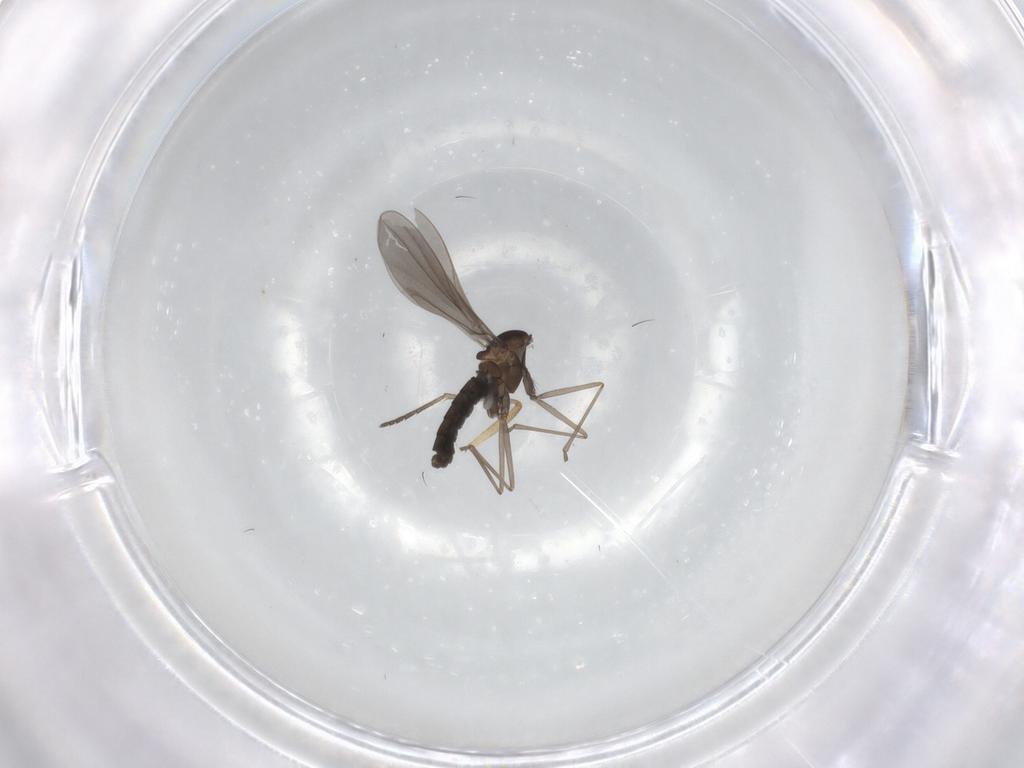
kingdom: Animalia
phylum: Arthropoda
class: Insecta
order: Diptera
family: Cecidomyiidae
